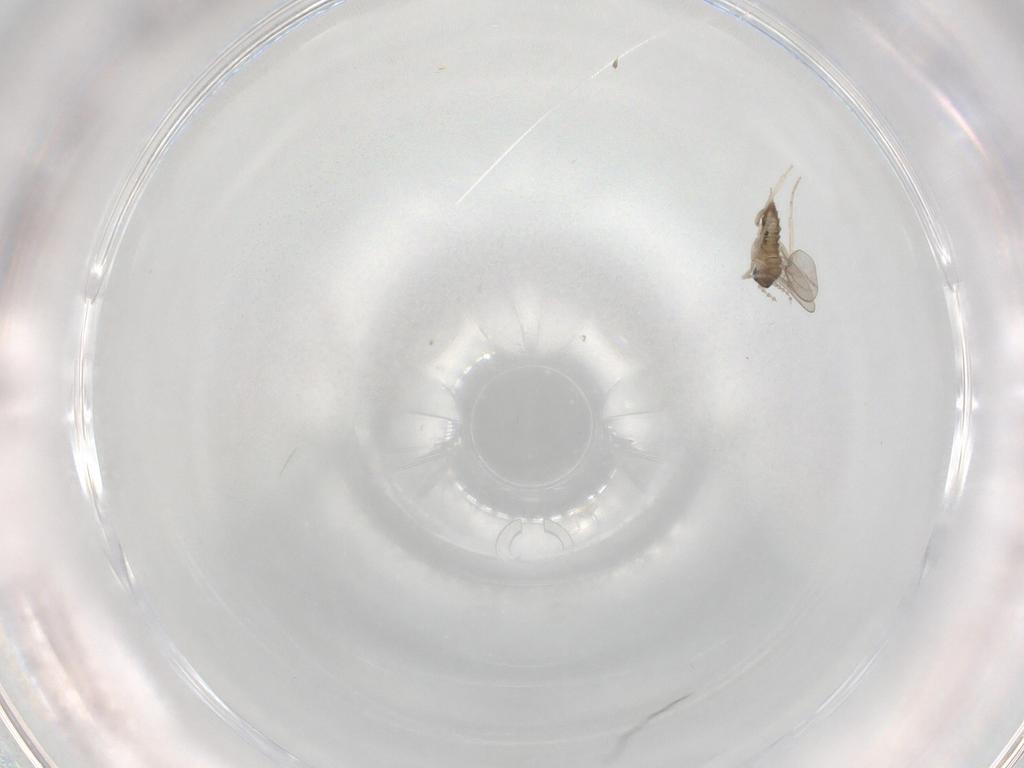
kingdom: Animalia
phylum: Arthropoda
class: Insecta
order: Diptera
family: Cecidomyiidae
